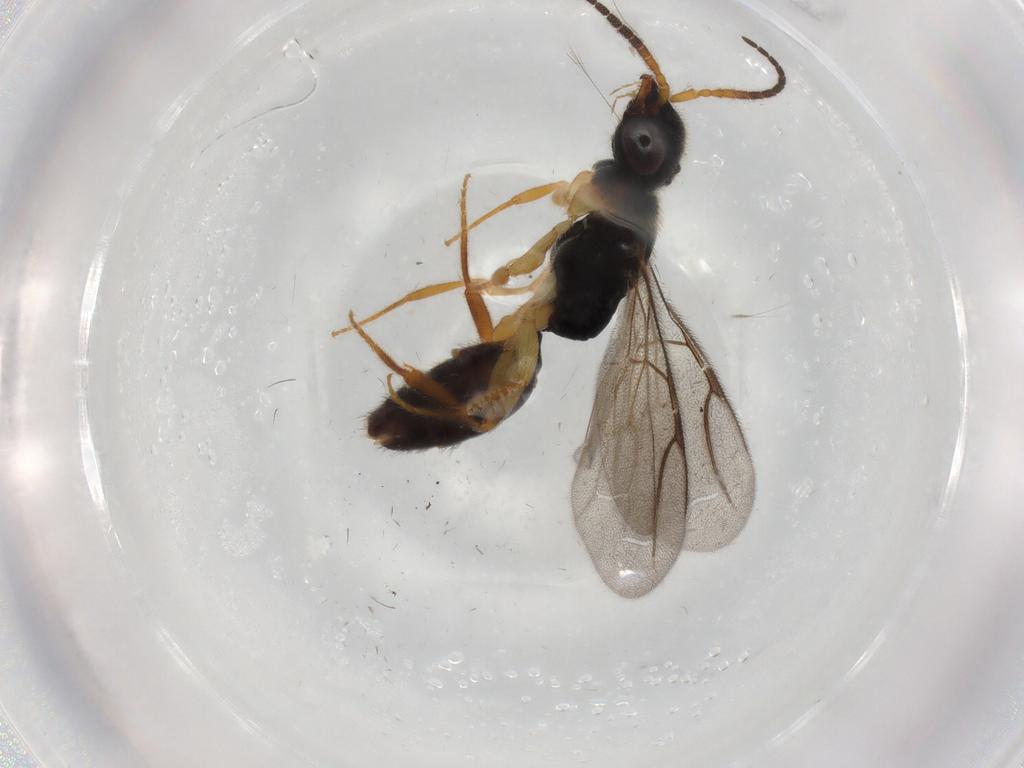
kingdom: Animalia
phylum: Arthropoda
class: Insecta
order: Hymenoptera
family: Bethylidae
